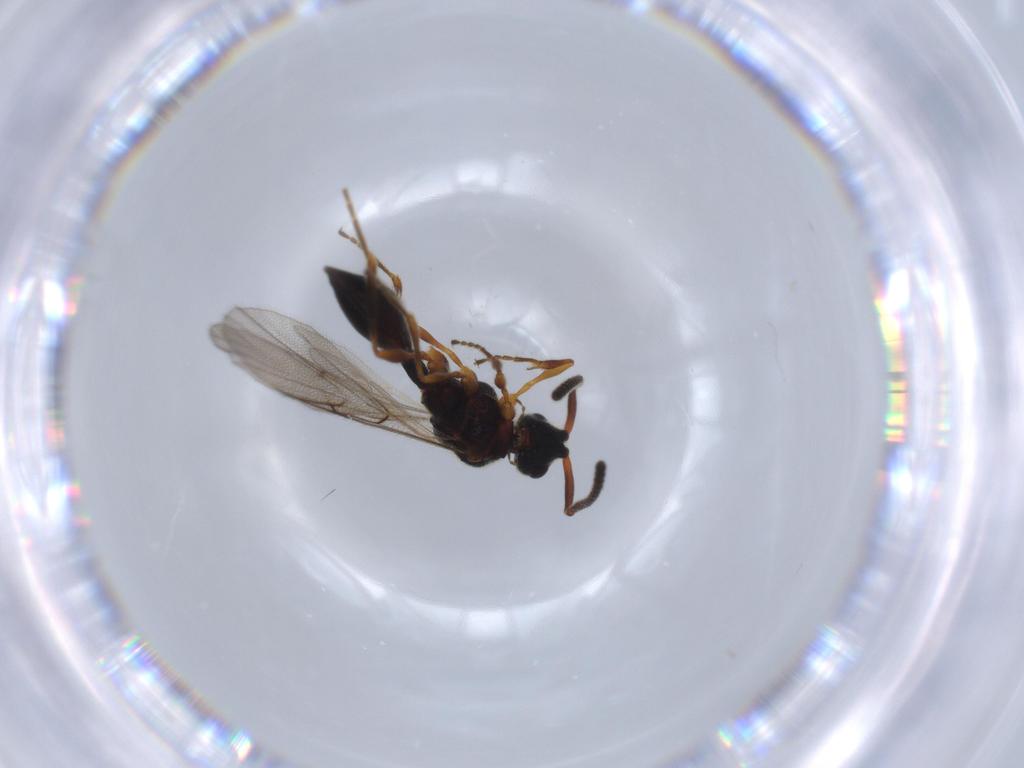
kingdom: Animalia
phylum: Arthropoda
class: Insecta
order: Hymenoptera
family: Diapriidae
